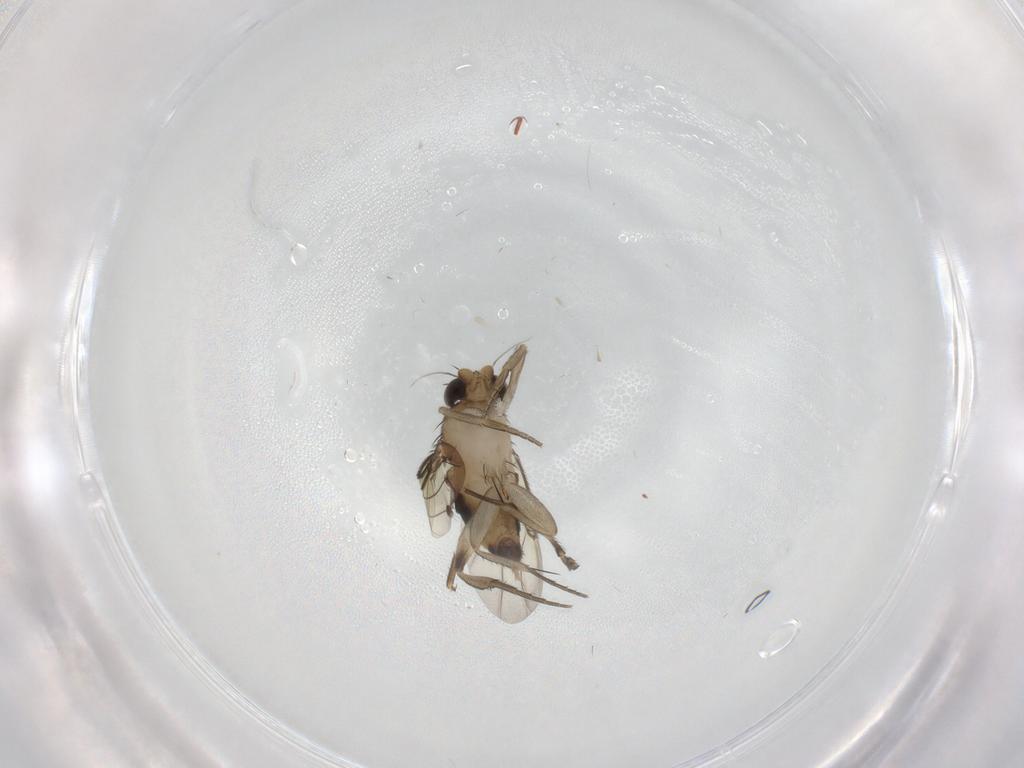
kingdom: Animalia
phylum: Arthropoda
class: Insecta
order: Diptera
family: Phoridae
